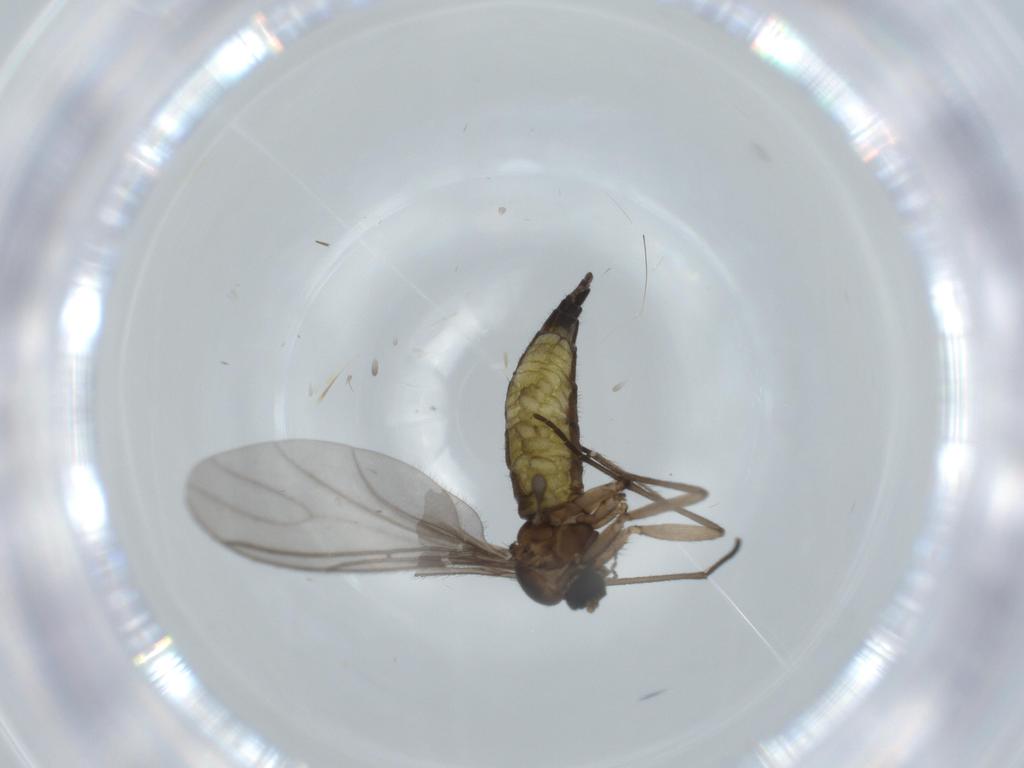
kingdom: Animalia
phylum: Arthropoda
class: Insecta
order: Diptera
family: Sciaridae
